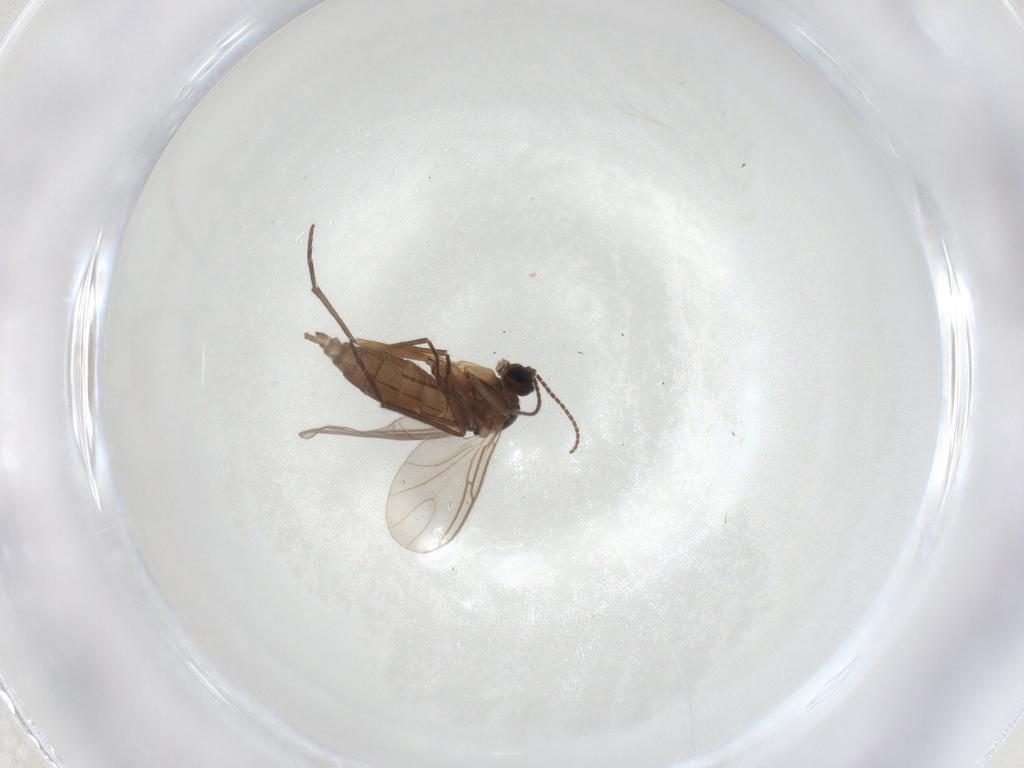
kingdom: Animalia
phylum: Arthropoda
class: Insecta
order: Diptera
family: Sciaridae
